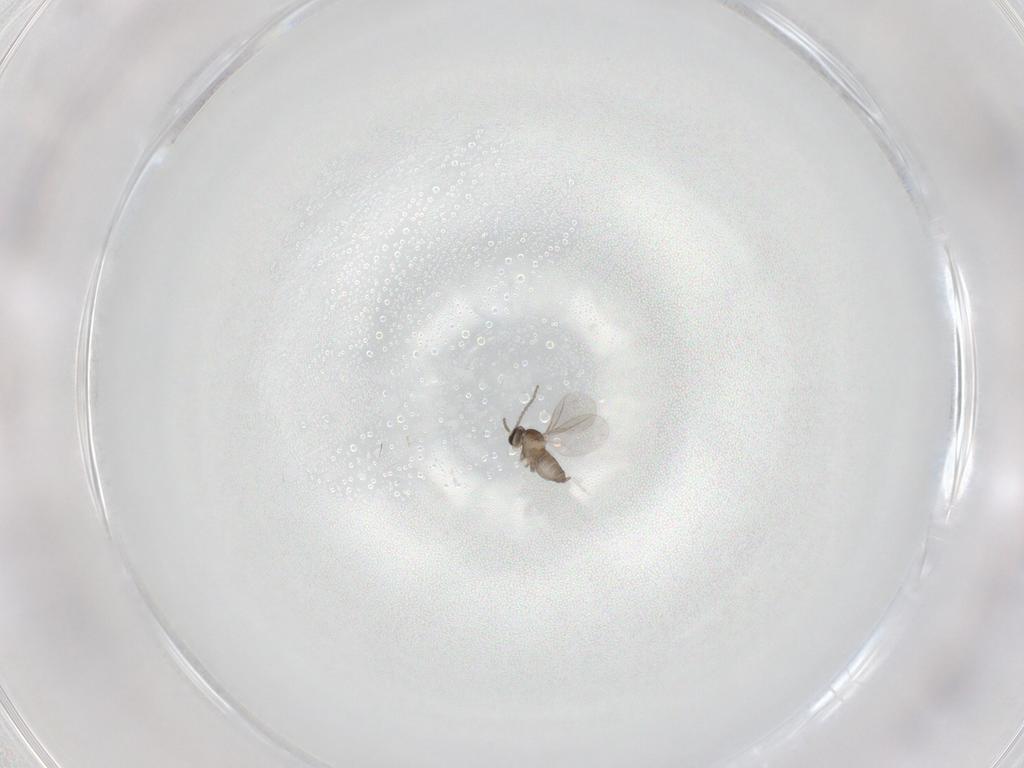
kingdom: Animalia
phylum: Arthropoda
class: Insecta
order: Diptera
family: Cecidomyiidae
